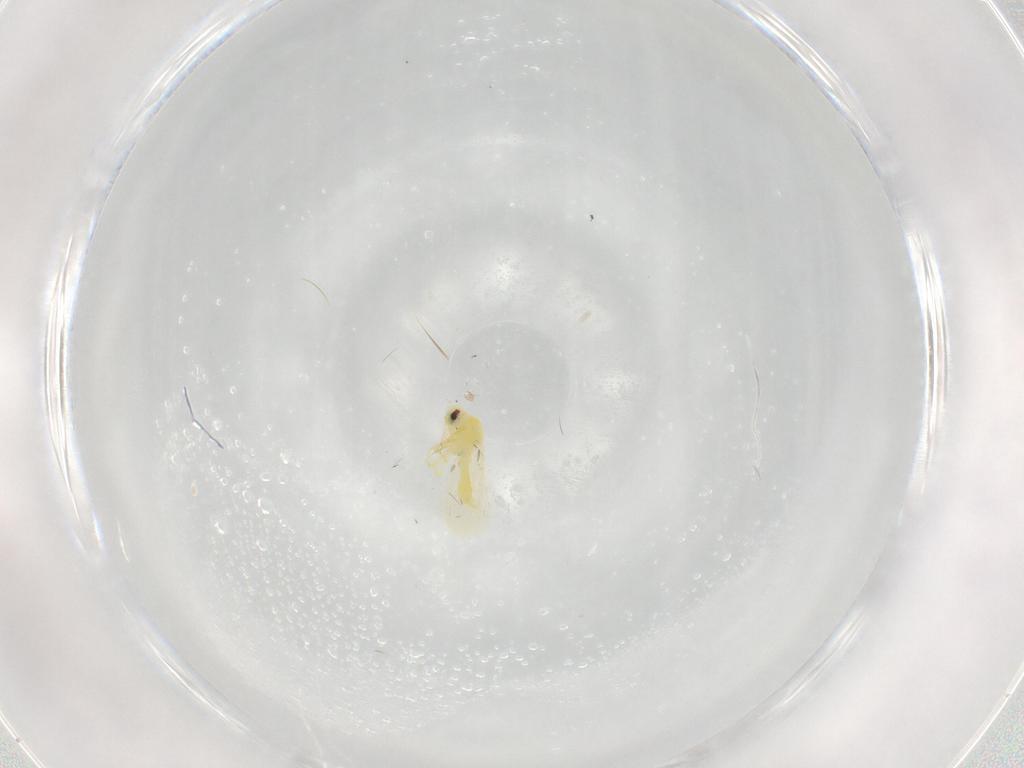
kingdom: Animalia
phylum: Arthropoda
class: Insecta
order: Hemiptera
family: Aleyrodidae
